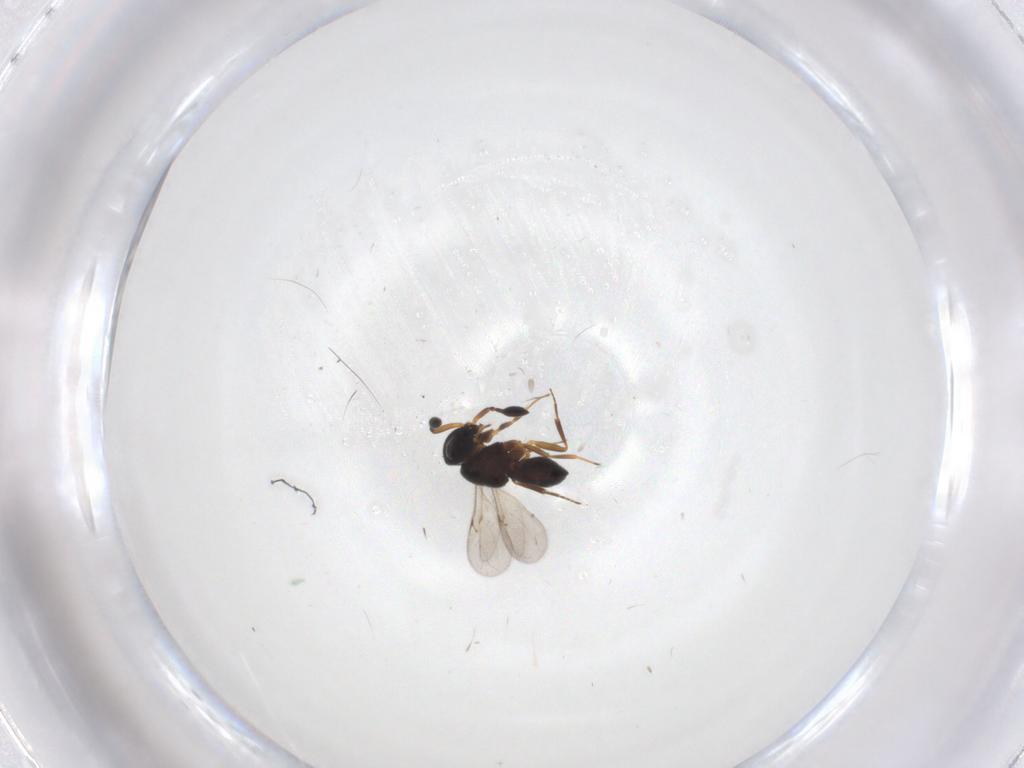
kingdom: Animalia
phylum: Arthropoda
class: Insecta
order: Hymenoptera
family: Scelionidae
